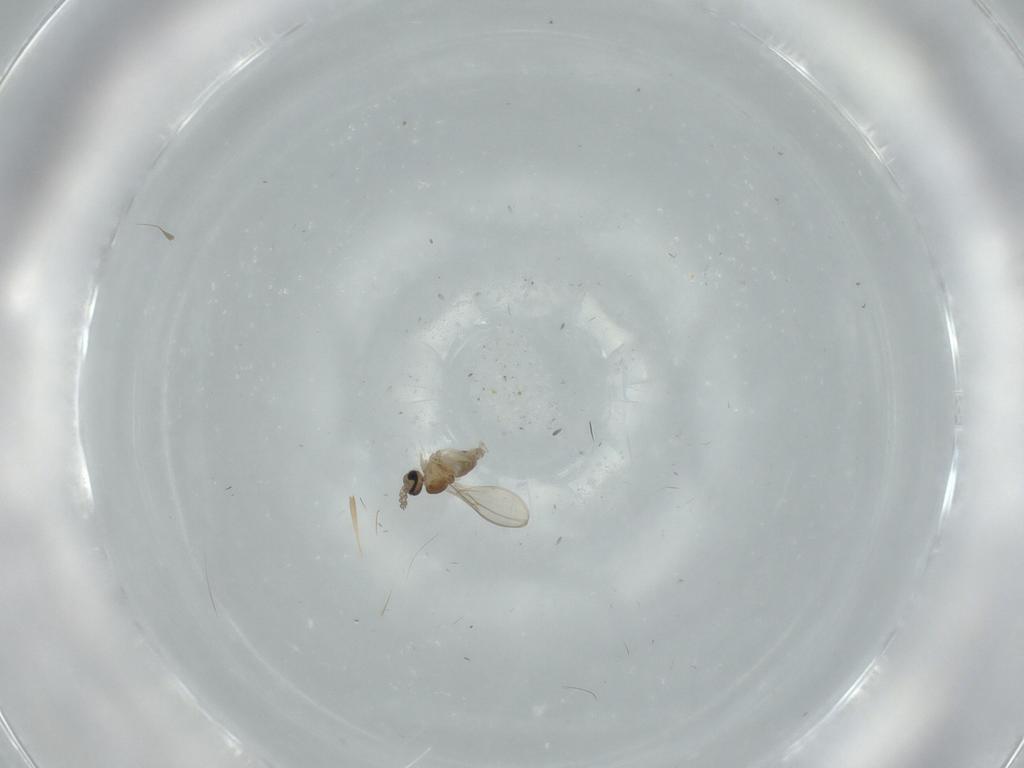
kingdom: Animalia
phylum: Arthropoda
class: Insecta
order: Diptera
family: Cecidomyiidae
